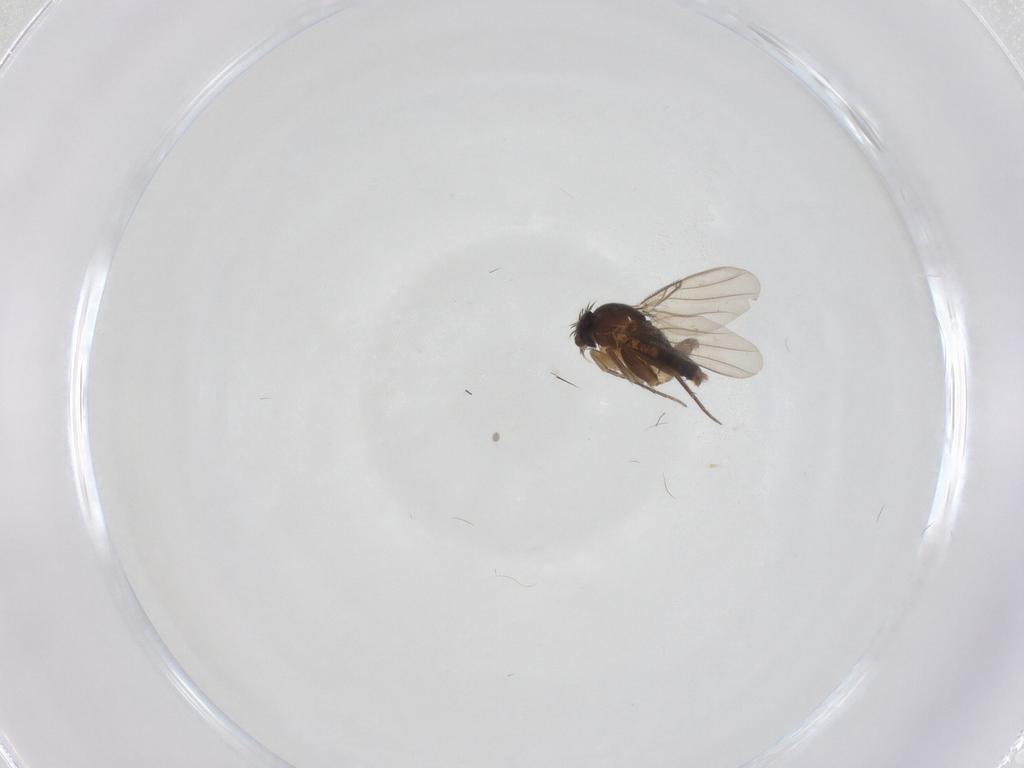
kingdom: Animalia
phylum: Arthropoda
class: Insecta
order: Diptera
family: Phoridae
